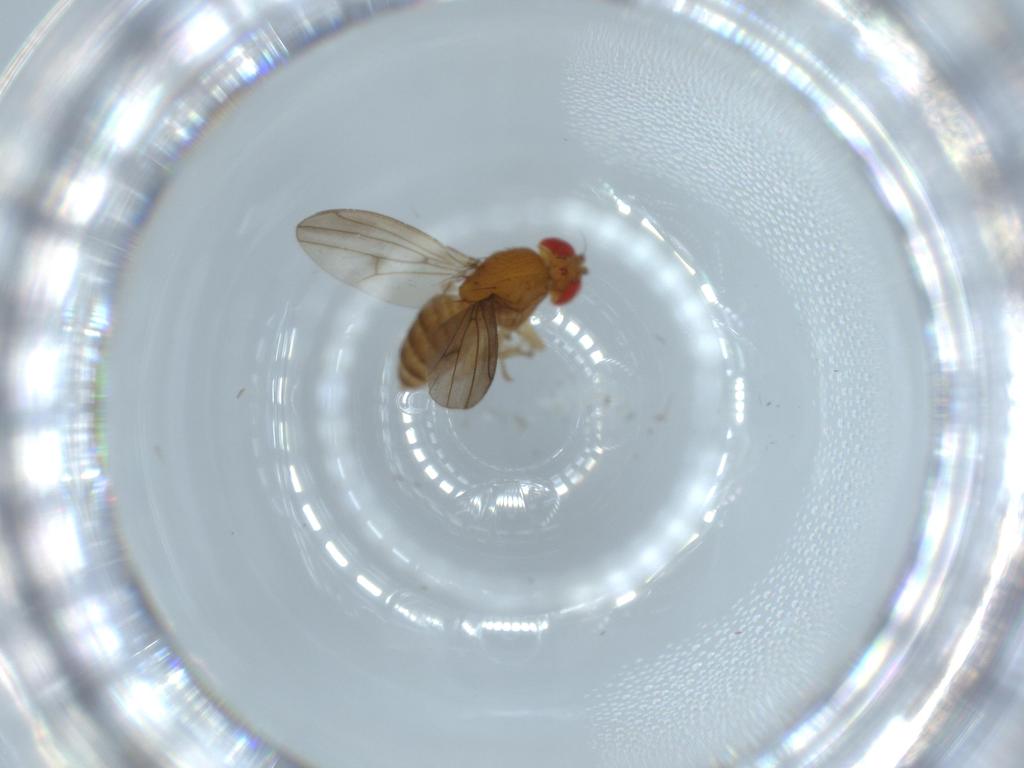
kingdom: Animalia
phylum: Arthropoda
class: Insecta
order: Diptera
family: Drosophilidae
